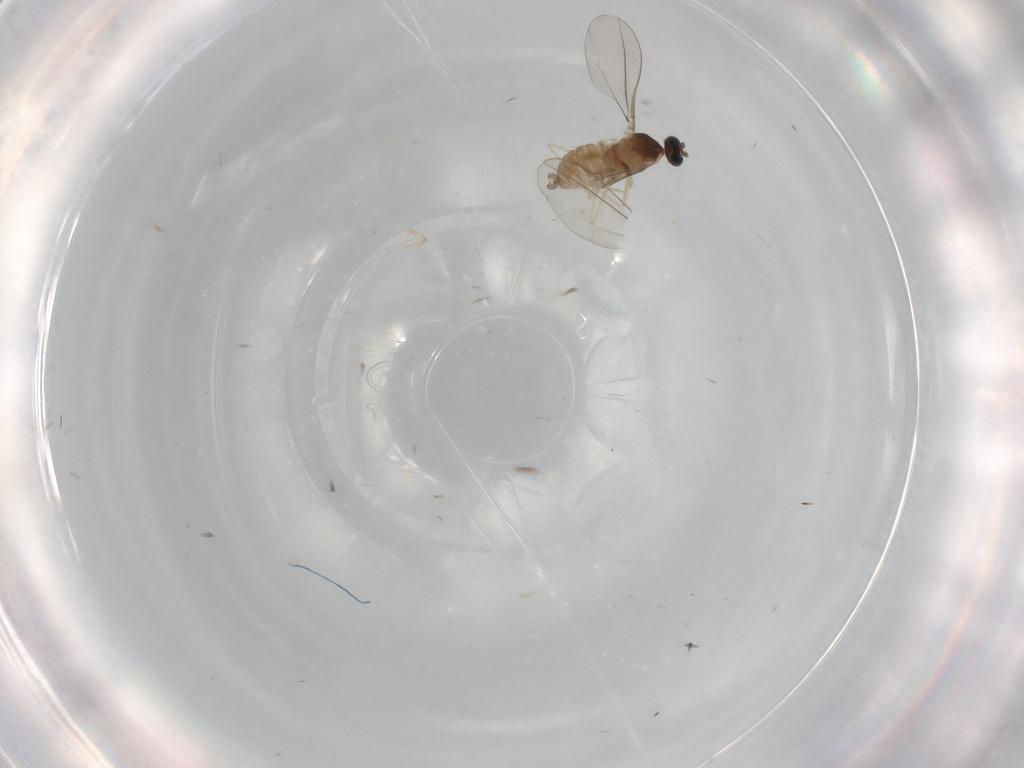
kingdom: Animalia
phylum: Arthropoda
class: Insecta
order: Diptera
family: Cecidomyiidae
